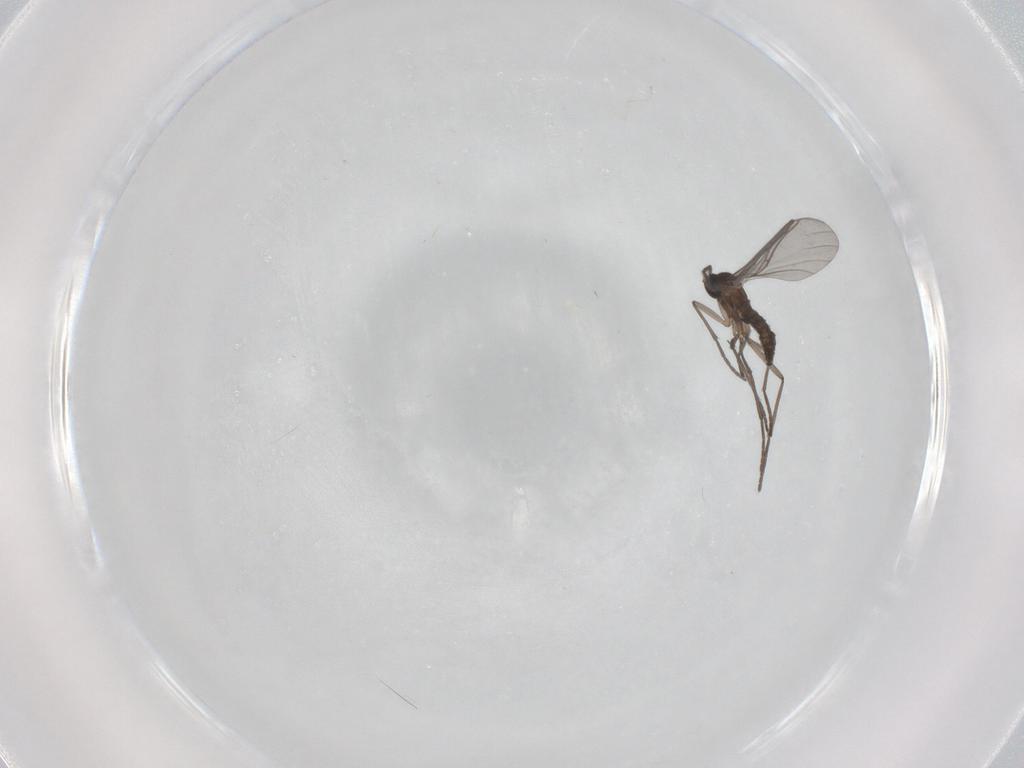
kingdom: Animalia
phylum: Arthropoda
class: Insecta
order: Diptera
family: Sciaridae
